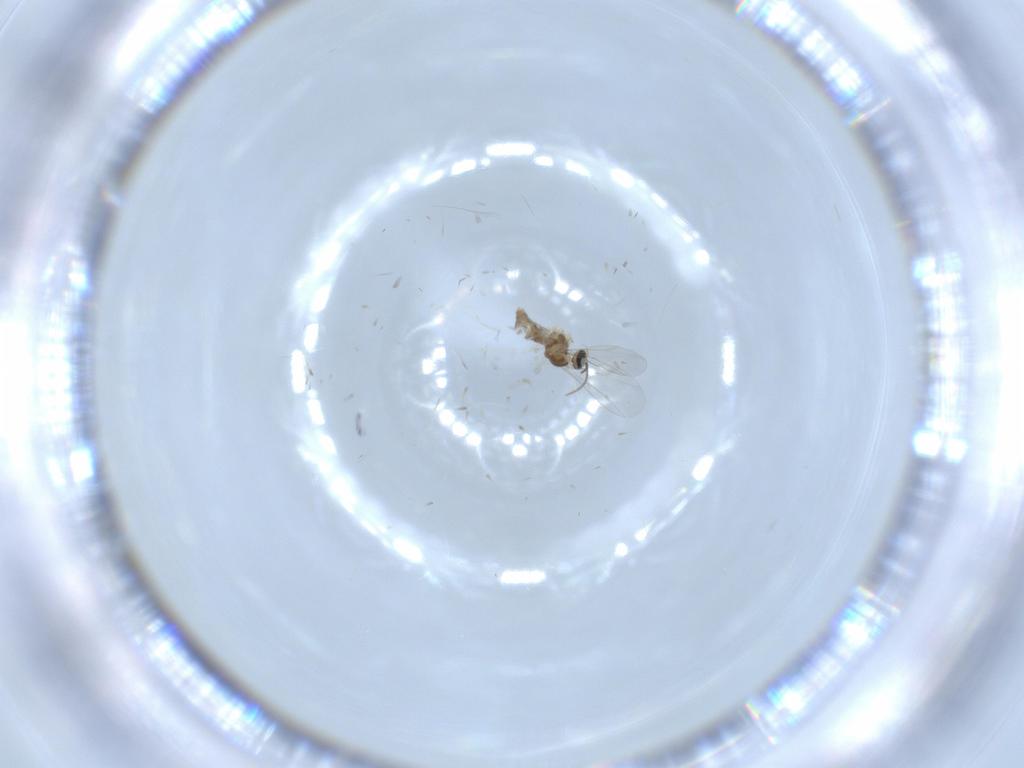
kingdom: Animalia
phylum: Arthropoda
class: Insecta
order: Diptera
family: Cecidomyiidae
